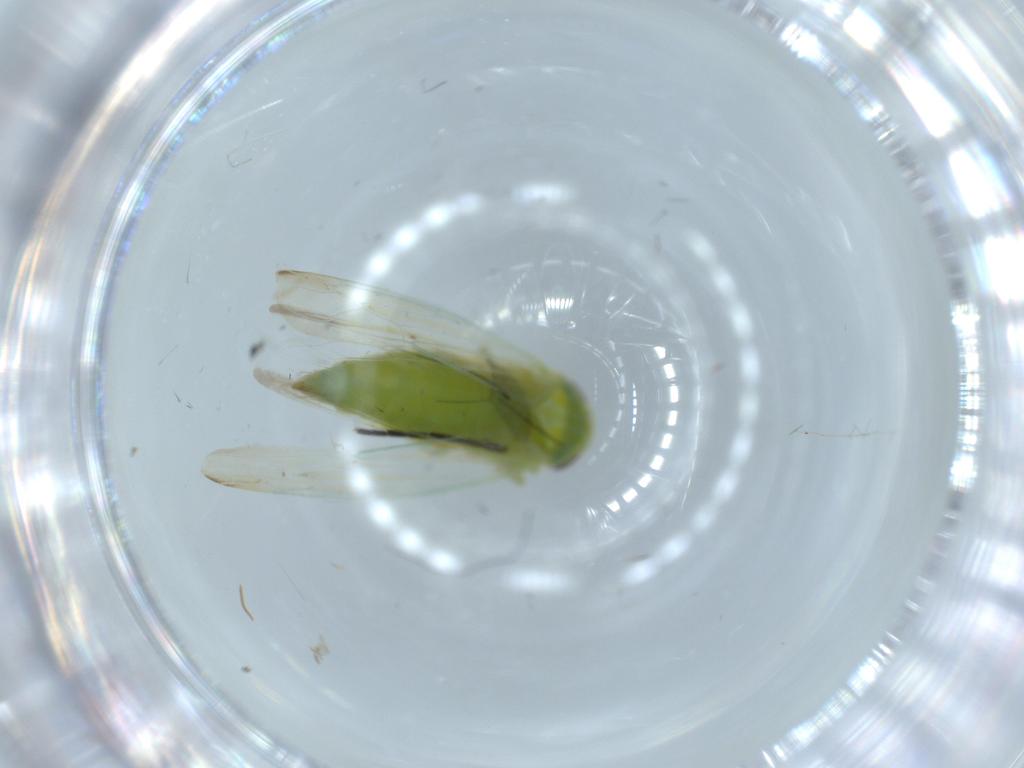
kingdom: Animalia
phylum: Arthropoda
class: Insecta
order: Hemiptera
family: Cicadellidae
